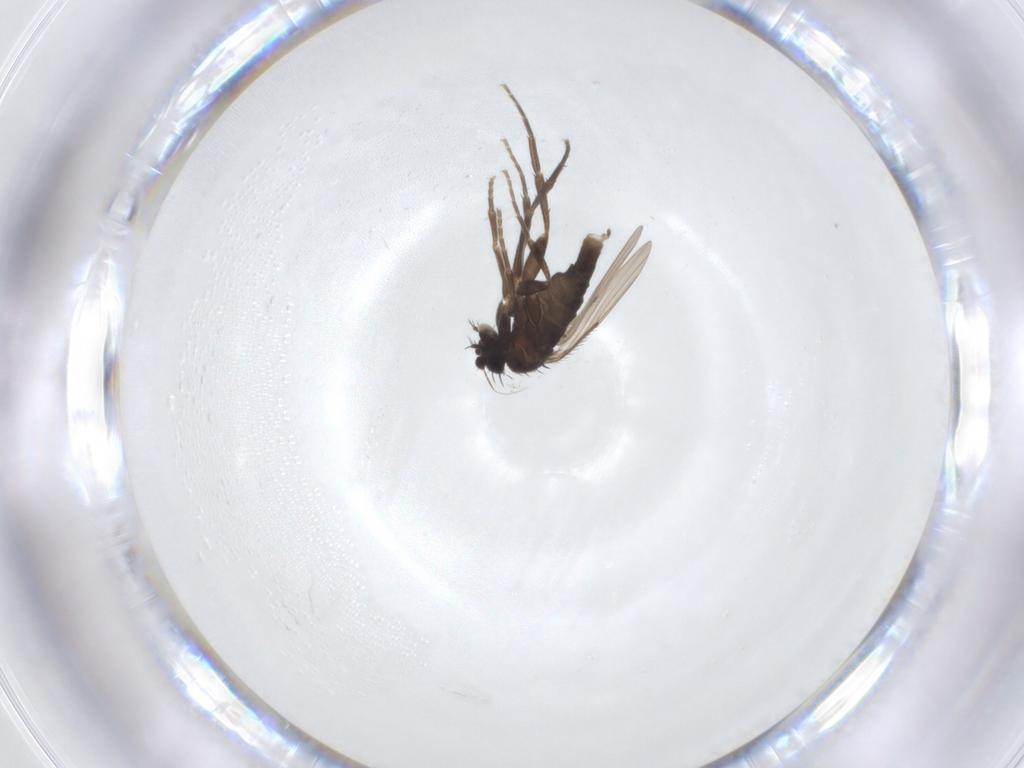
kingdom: Animalia
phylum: Arthropoda
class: Insecta
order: Diptera
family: Phoridae
